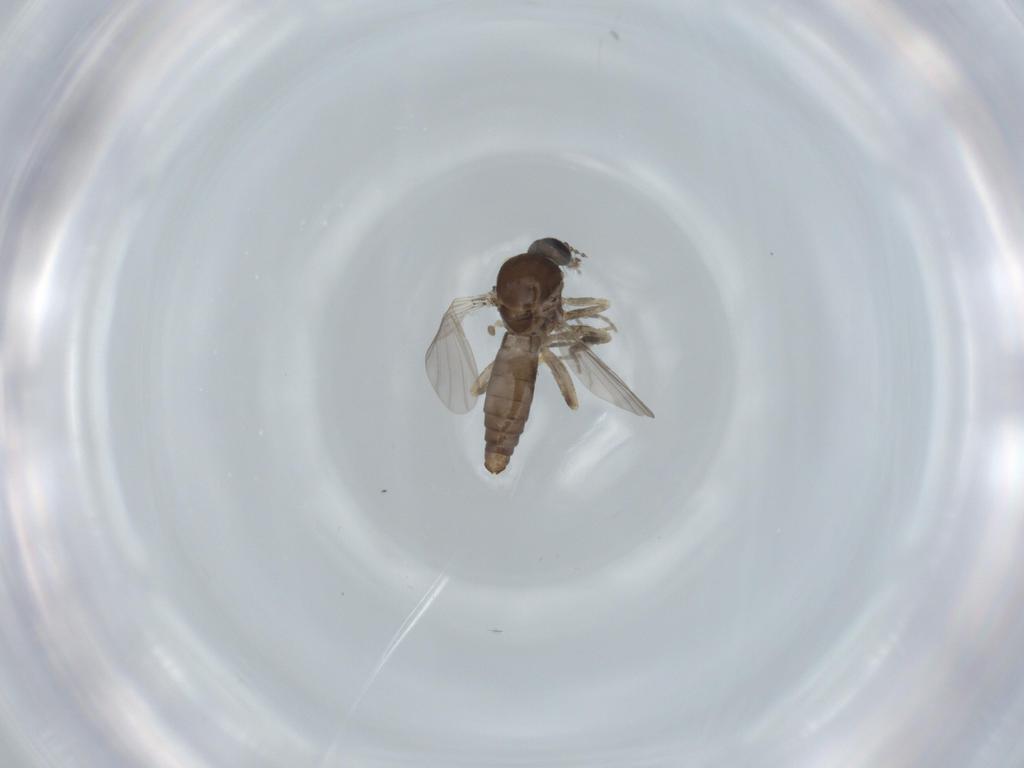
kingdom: Animalia
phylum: Arthropoda
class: Insecta
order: Diptera
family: Ceratopogonidae
